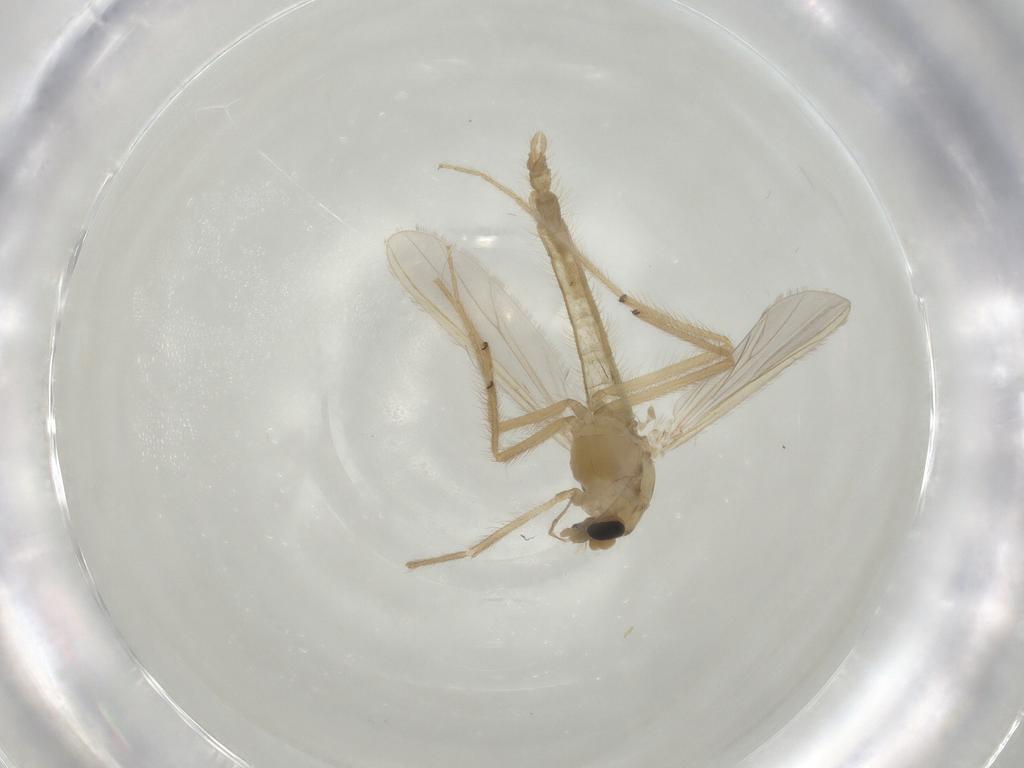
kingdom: Animalia
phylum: Arthropoda
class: Insecta
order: Diptera
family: Chironomidae
